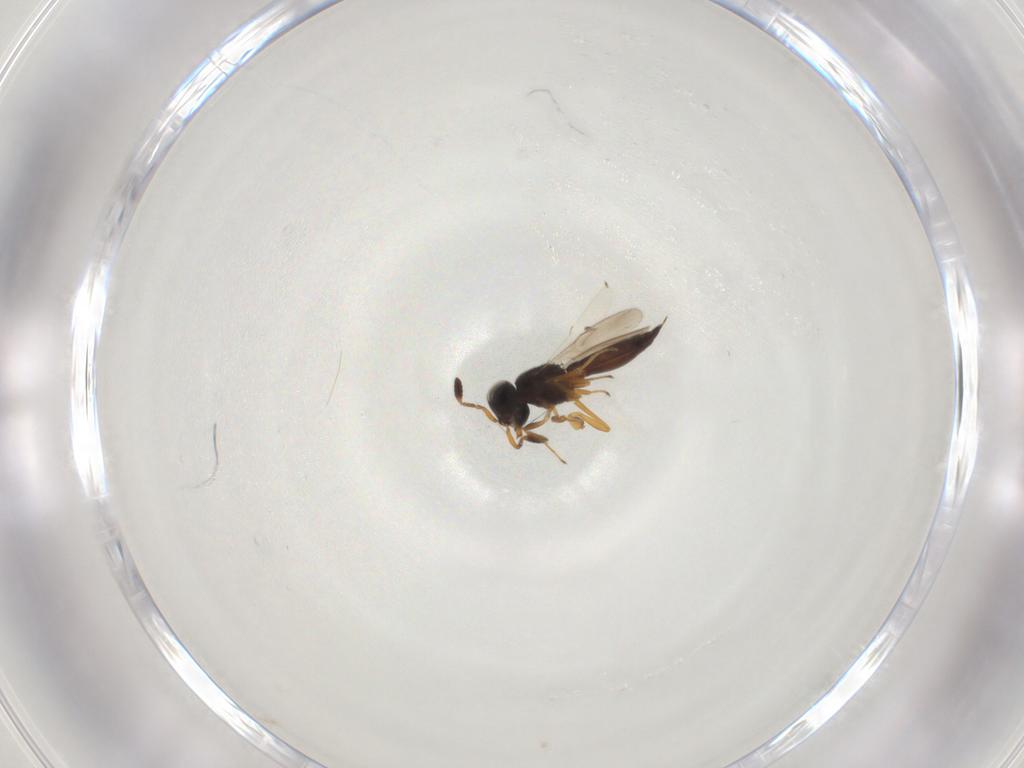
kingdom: Animalia
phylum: Arthropoda
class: Insecta
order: Hymenoptera
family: Scelionidae
